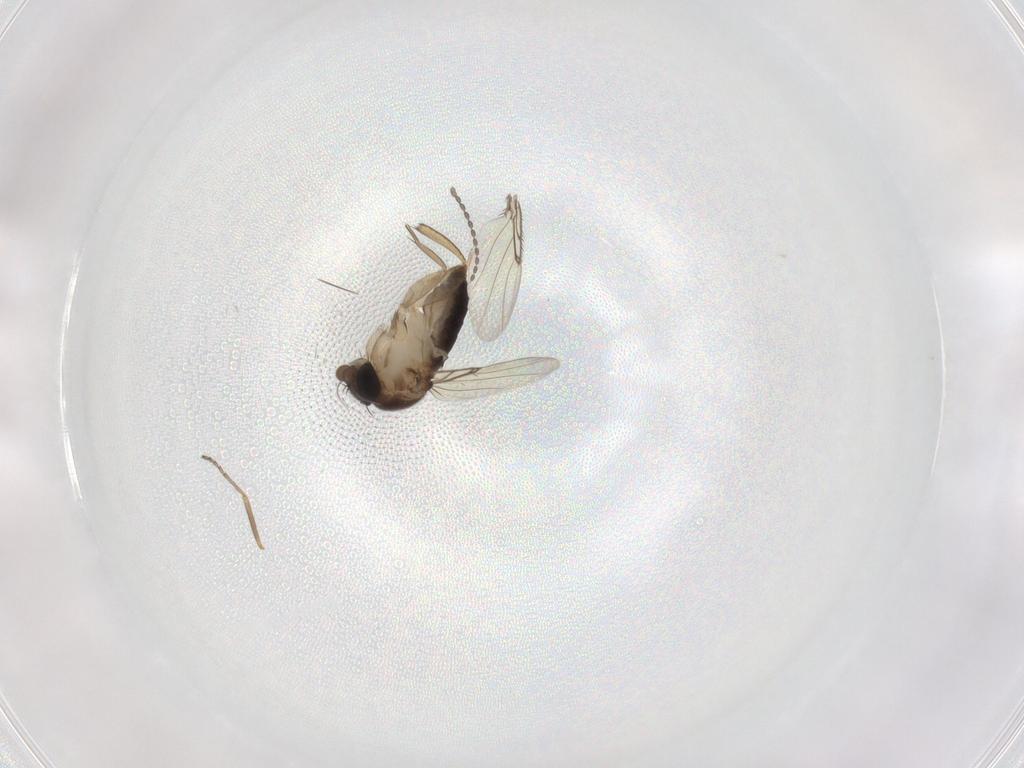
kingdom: Animalia
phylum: Arthropoda
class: Insecta
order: Diptera
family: Phoridae
